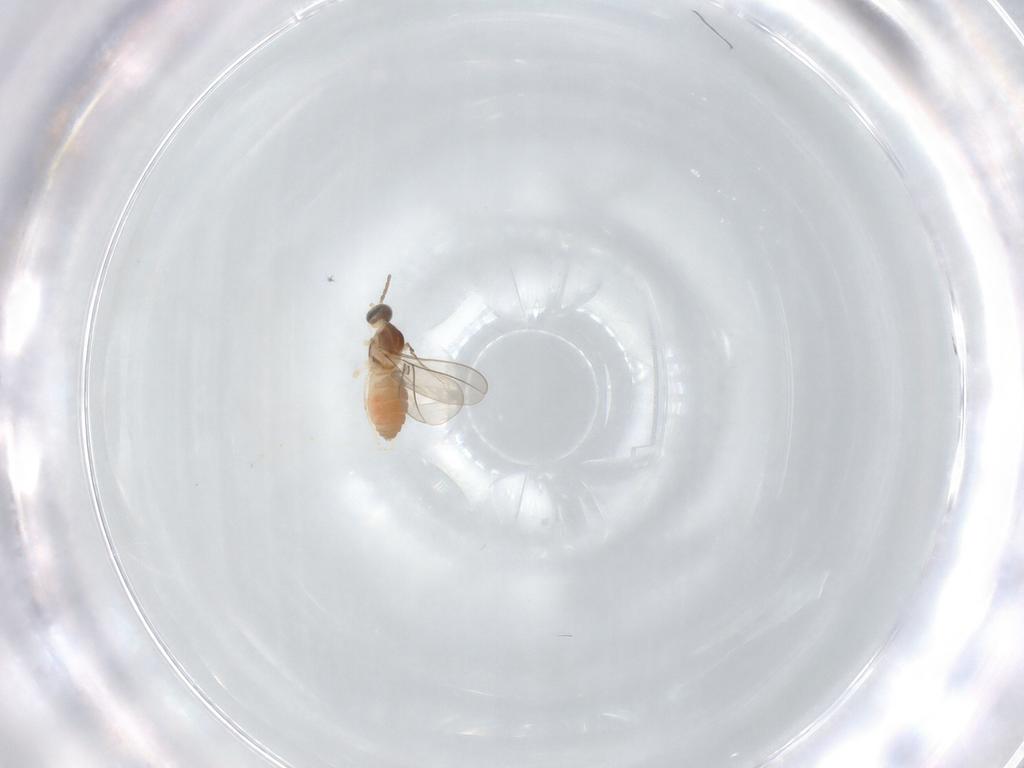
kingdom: Animalia
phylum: Arthropoda
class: Insecta
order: Diptera
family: Cecidomyiidae
